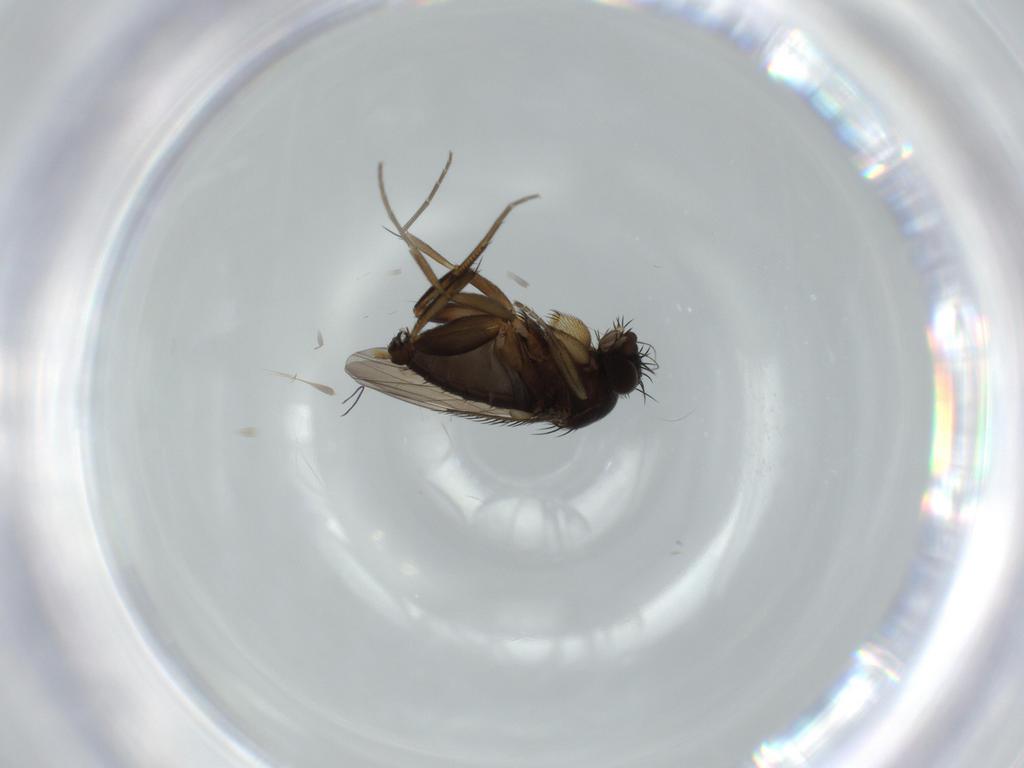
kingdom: Animalia
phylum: Arthropoda
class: Insecta
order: Diptera
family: Phoridae
